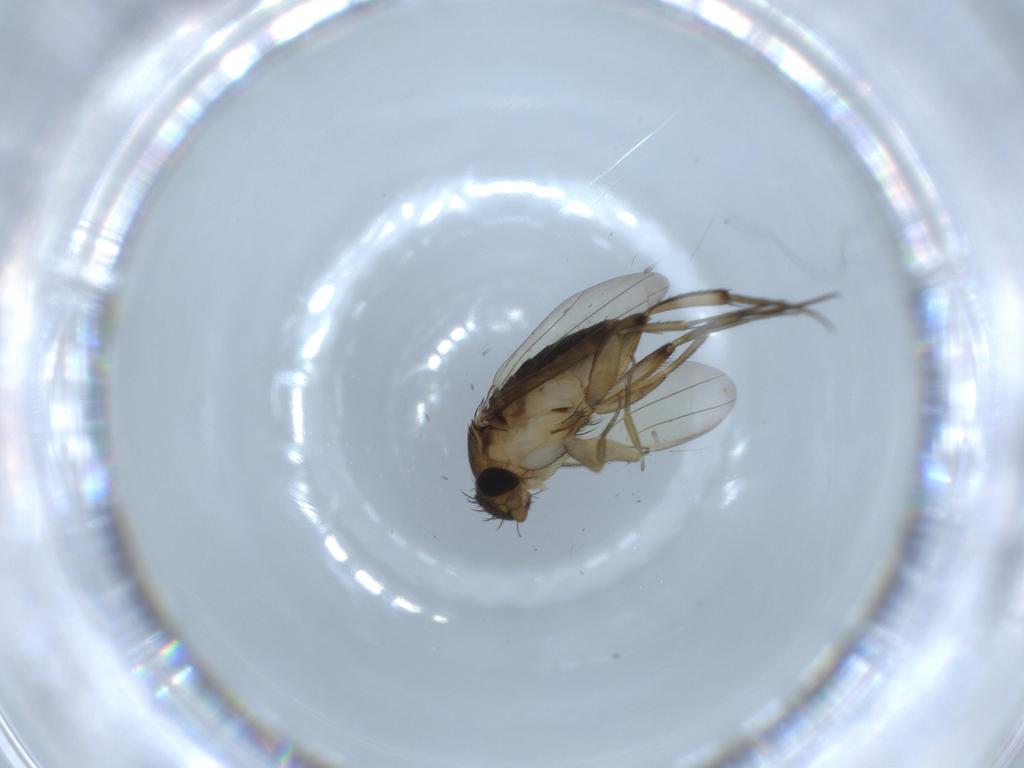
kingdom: Animalia
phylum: Arthropoda
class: Insecta
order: Diptera
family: Phoridae
